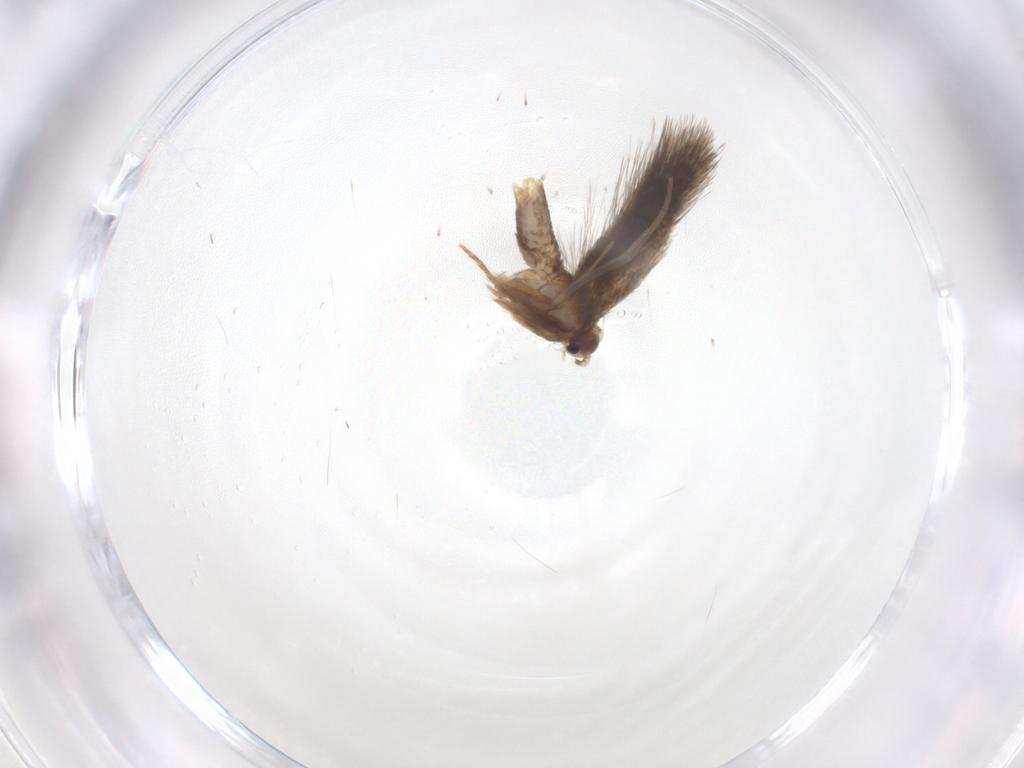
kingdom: Animalia
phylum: Arthropoda
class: Insecta
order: Lepidoptera
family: Psychidae
